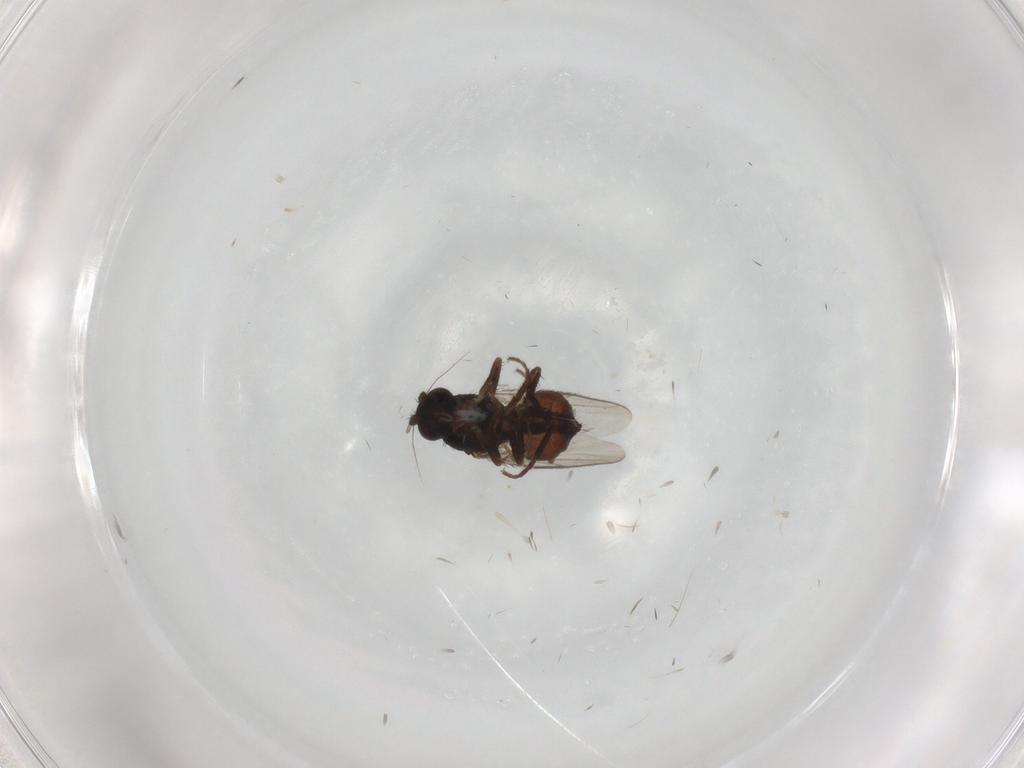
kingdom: Animalia
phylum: Arthropoda
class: Insecta
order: Diptera
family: Sphaeroceridae
